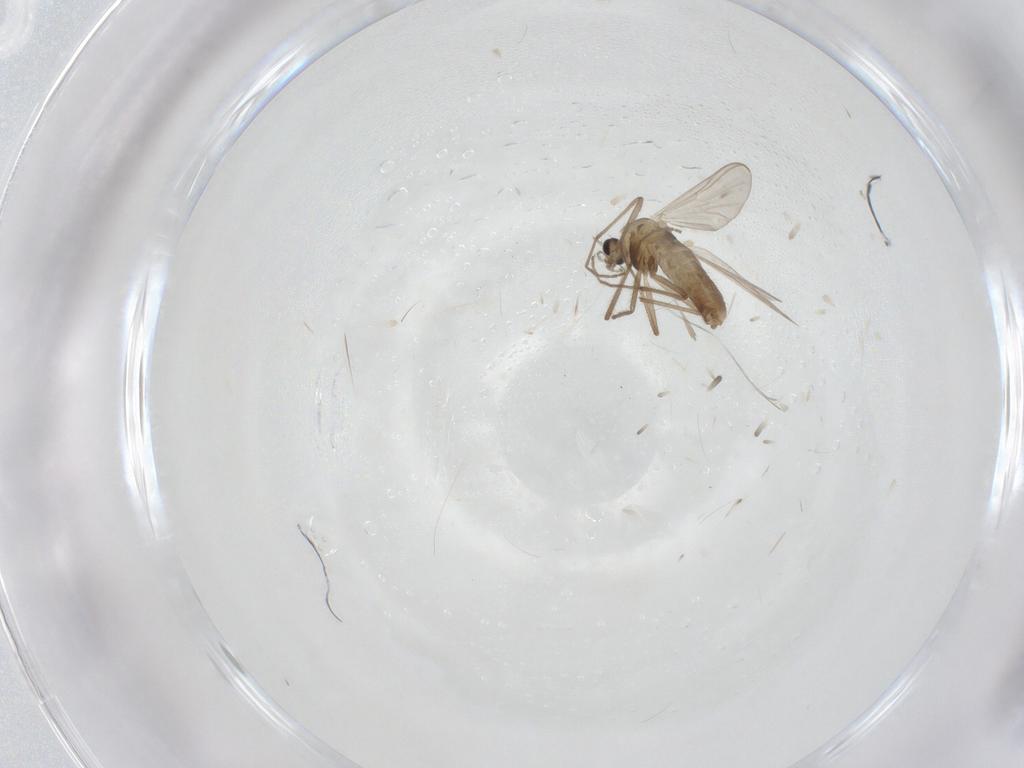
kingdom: Animalia
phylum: Arthropoda
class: Insecta
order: Diptera
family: Chironomidae
